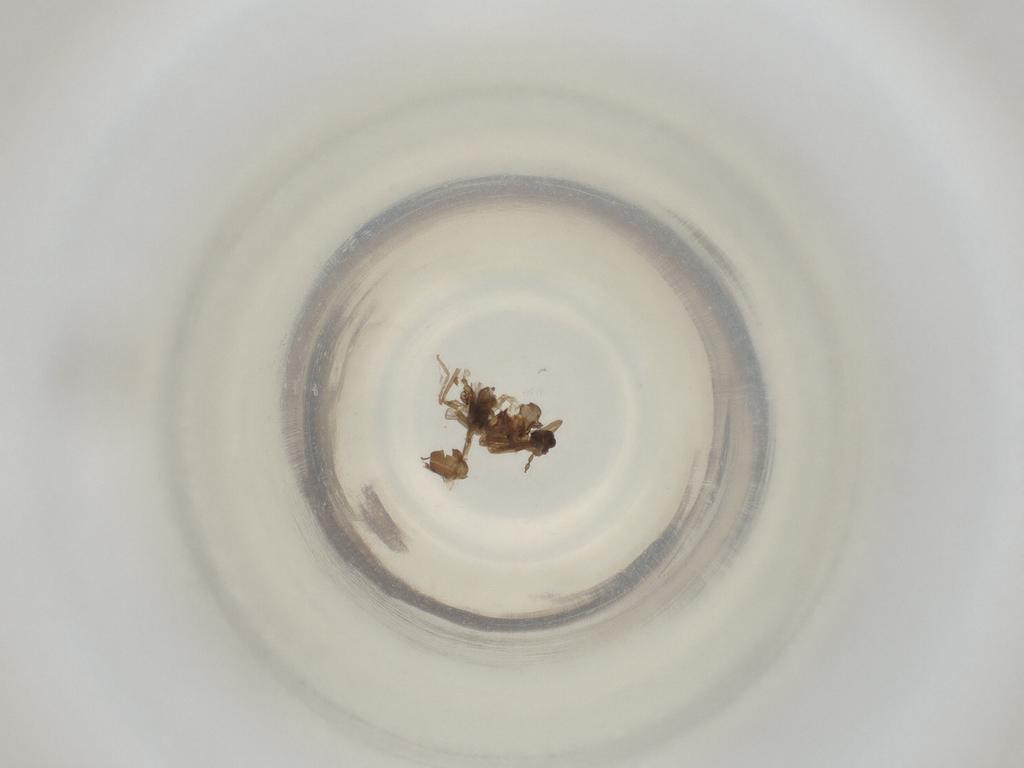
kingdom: Animalia
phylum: Arthropoda
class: Insecta
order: Diptera
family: Cecidomyiidae
